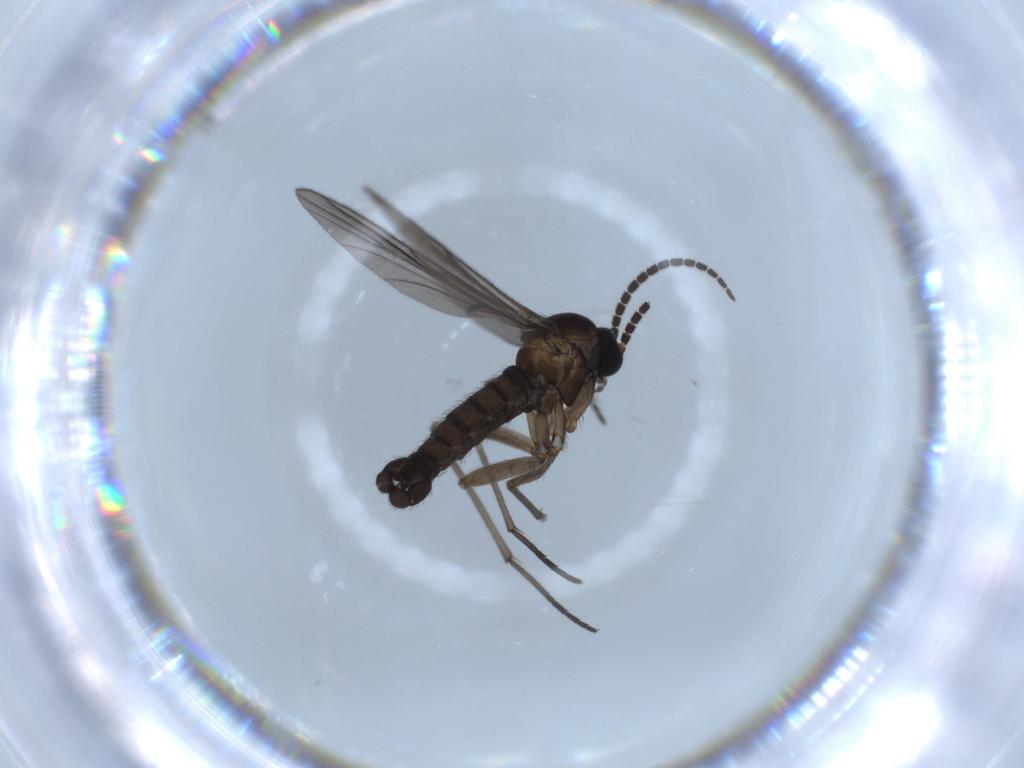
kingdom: Animalia
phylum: Arthropoda
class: Insecta
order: Diptera
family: Sciaridae
